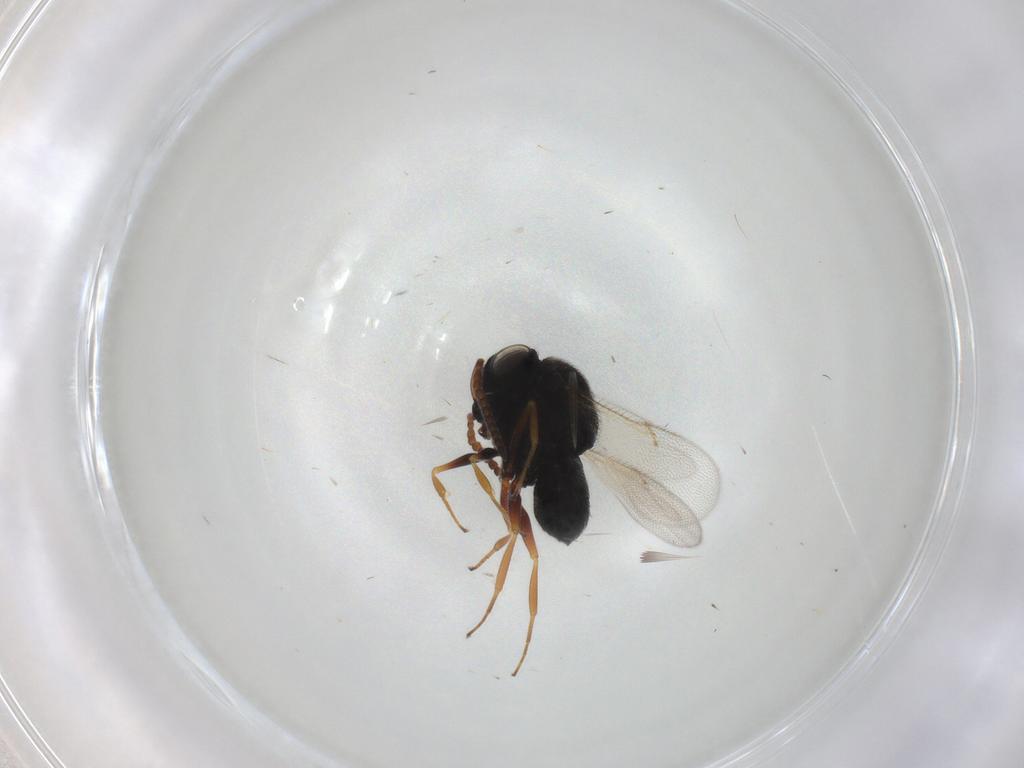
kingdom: Animalia
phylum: Arthropoda
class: Insecta
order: Hymenoptera
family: Scelionidae
